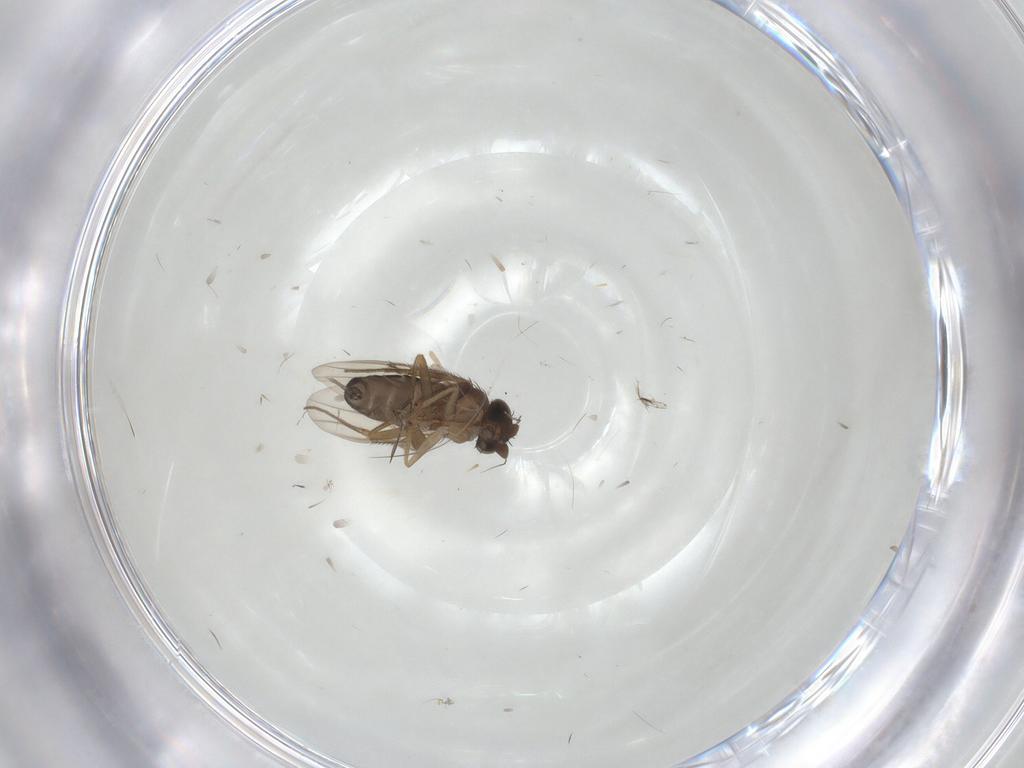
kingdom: Animalia
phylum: Arthropoda
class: Insecta
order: Diptera
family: Phoridae
